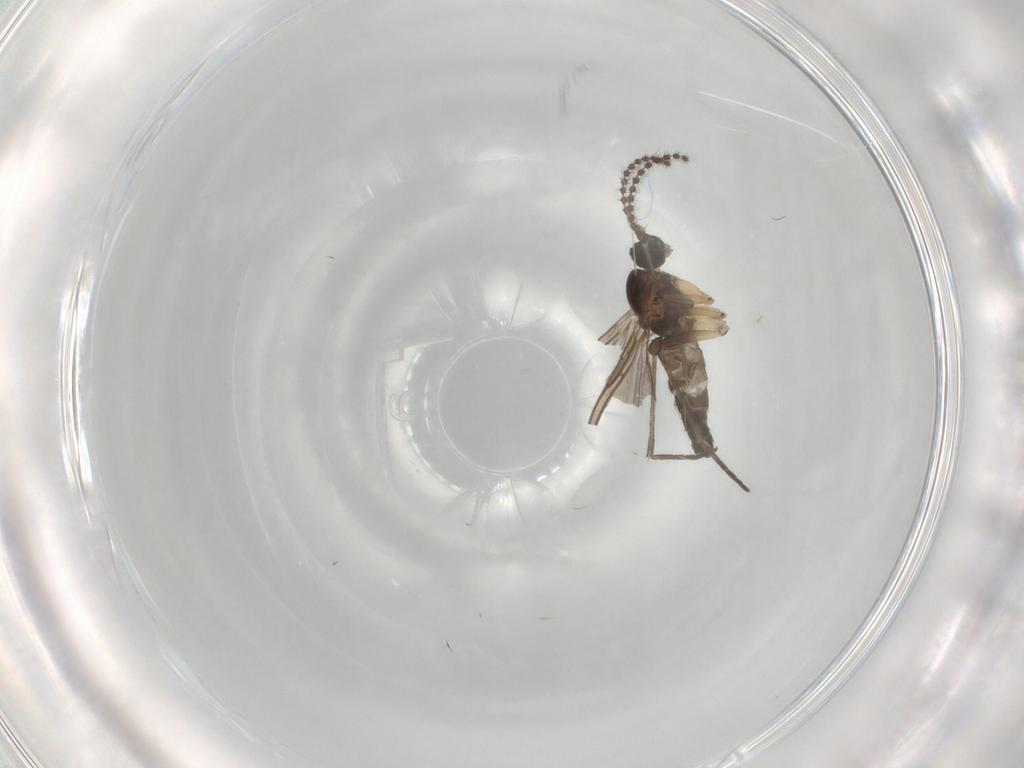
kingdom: Animalia
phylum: Arthropoda
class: Insecta
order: Diptera
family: Sciaridae
